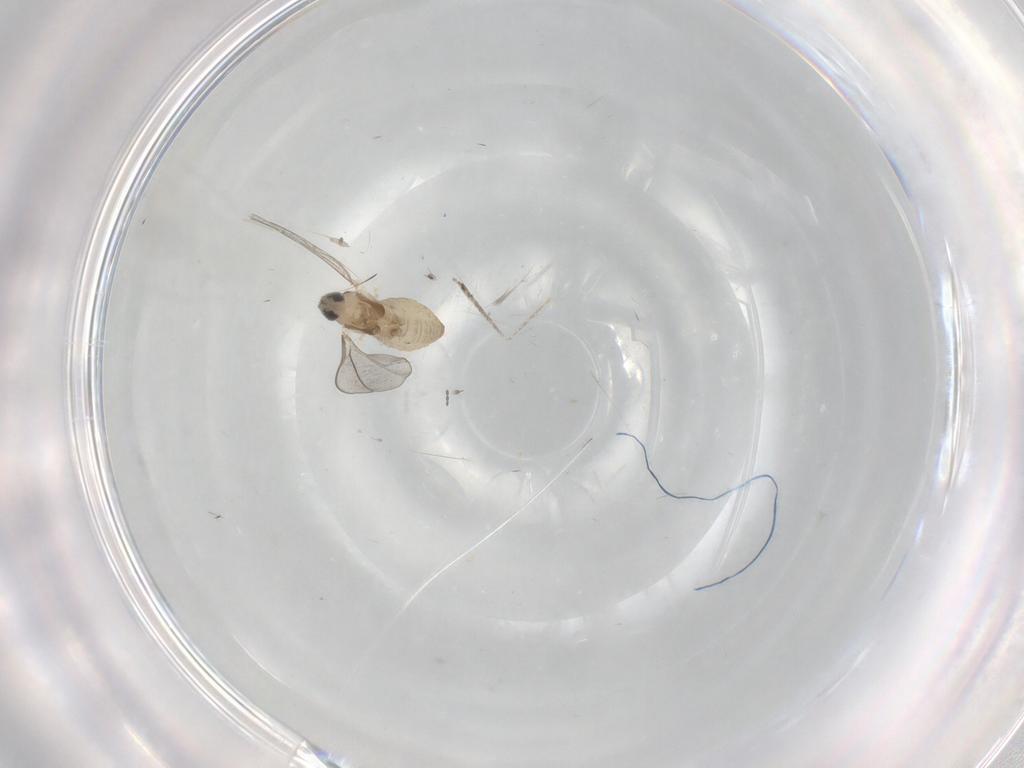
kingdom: Animalia
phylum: Arthropoda
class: Insecta
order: Diptera
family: Cecidomyiidae
